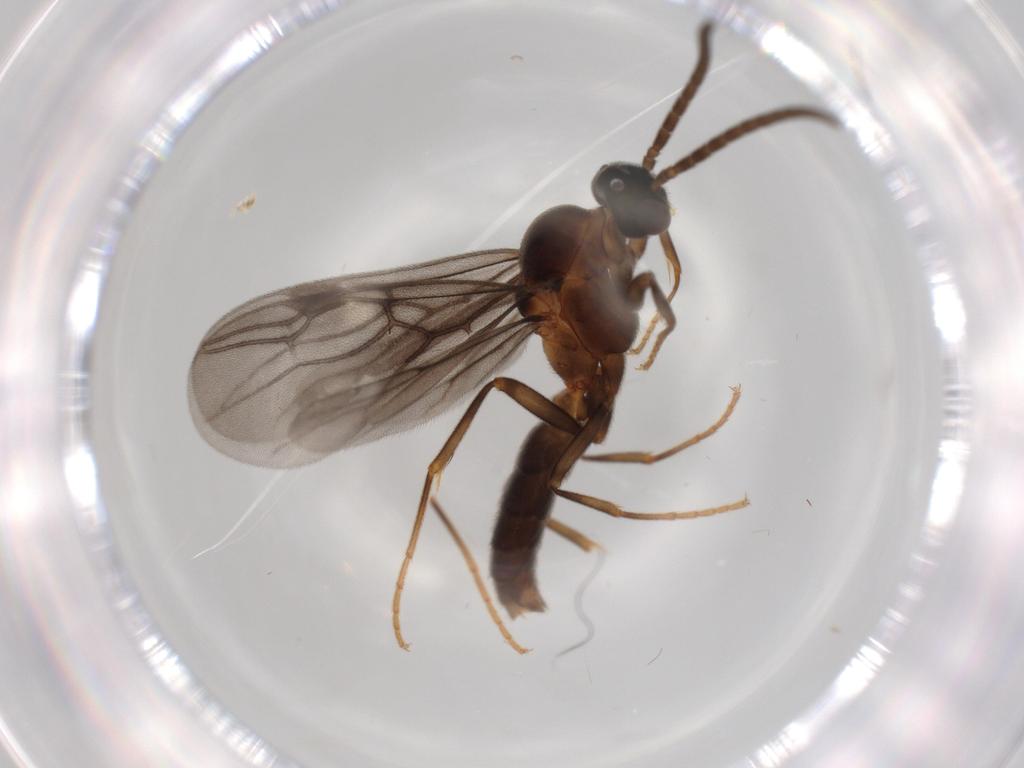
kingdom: Animalia
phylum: Arthropoda
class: Insecta
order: Hymenoptera
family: Formicidae
